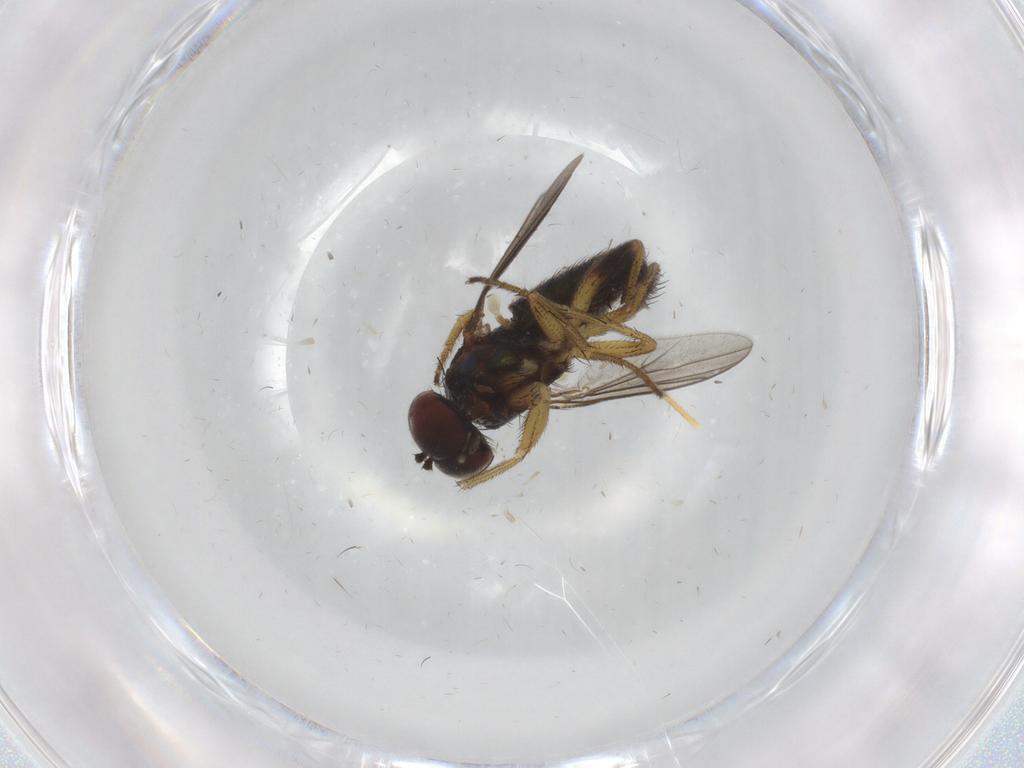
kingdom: Animalia
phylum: Arthropoda
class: Insecta
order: Diptera
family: Dolichopodidae
